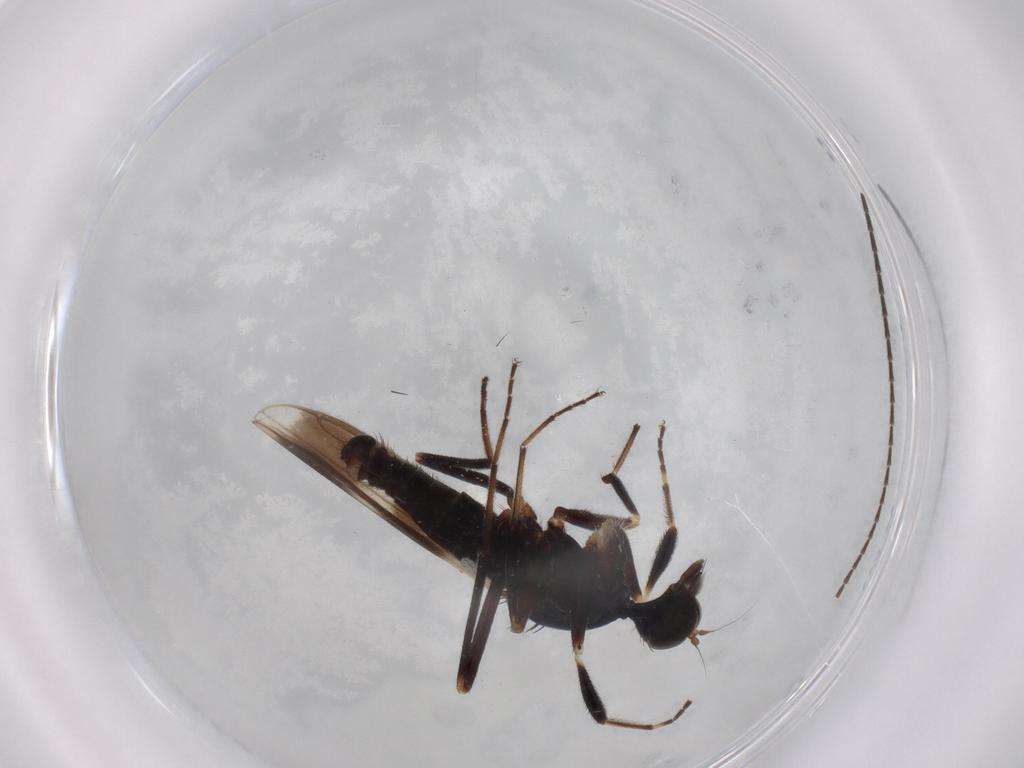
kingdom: Animalia
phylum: Arthropoda
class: Insecta
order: Diptera
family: Hybotidae
